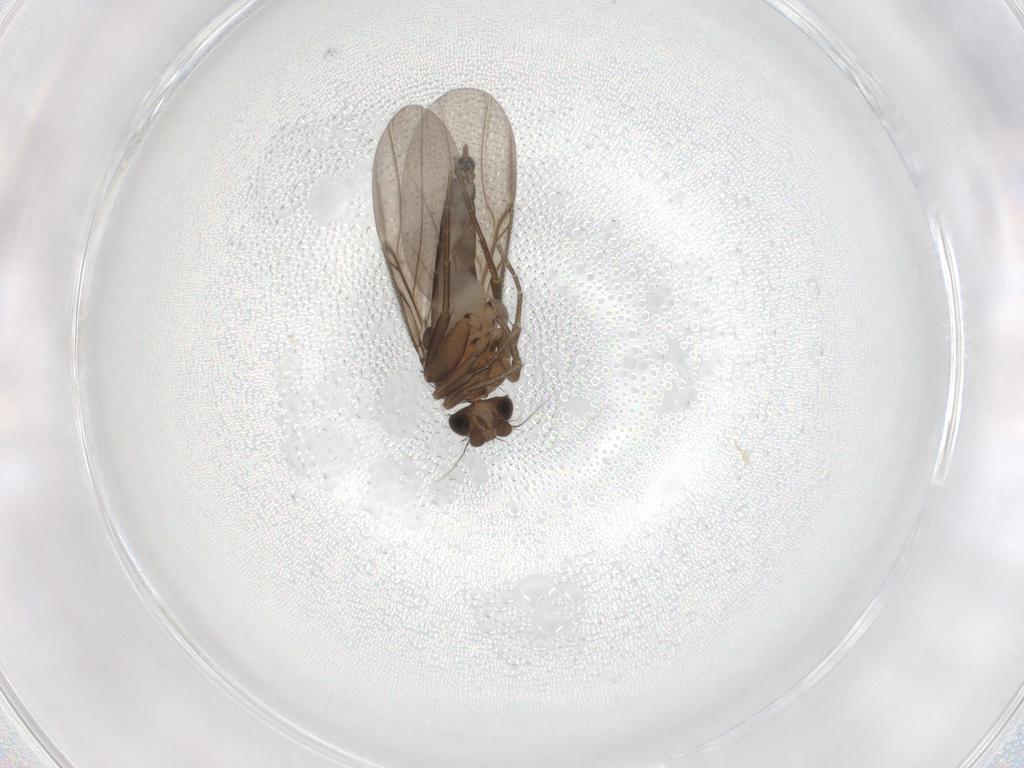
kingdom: Animalia
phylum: Arthropoda
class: Insecta
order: Diptera
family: Phoridae
